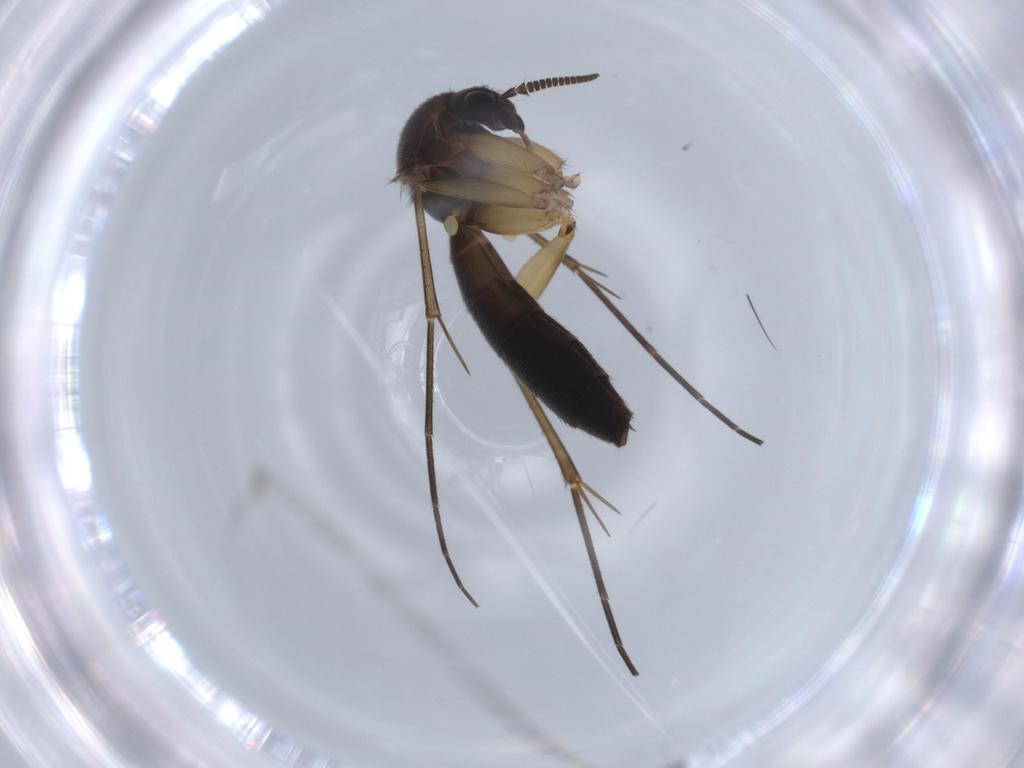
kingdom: Animalia
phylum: Arthropoda
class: Insecta
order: Diptera
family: Mycetophilidae
